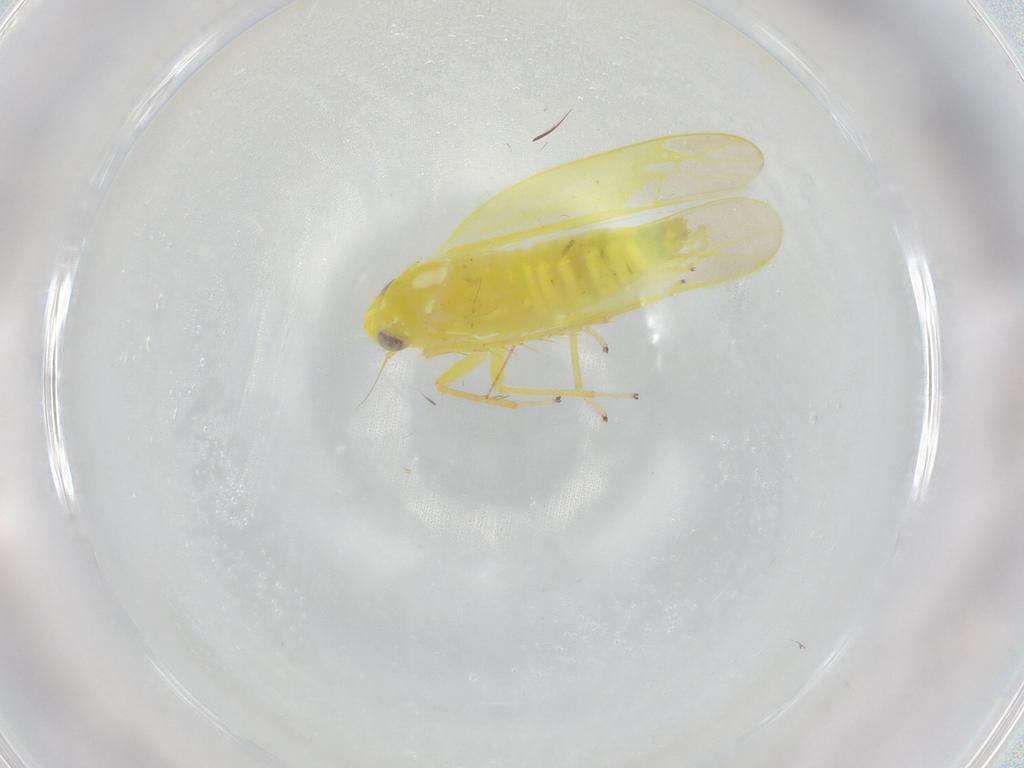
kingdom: Animalia
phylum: Arthropoda
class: Insecta
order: Hemiptera
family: Cicadellidae
